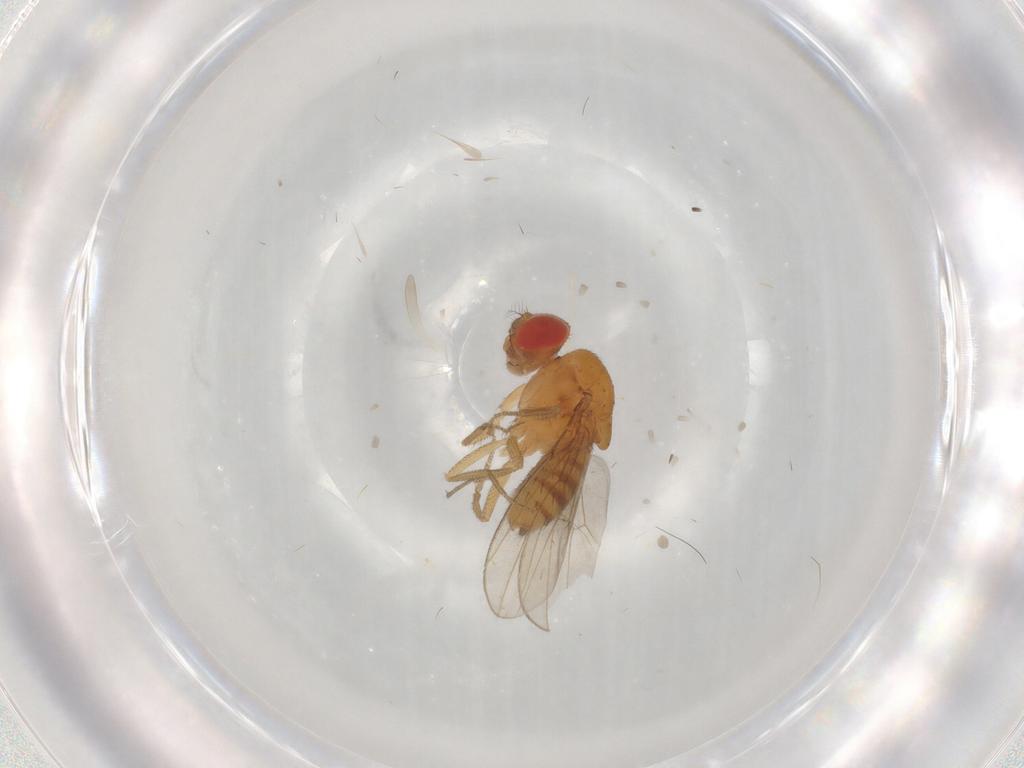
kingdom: Animalia
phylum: Arthropoda
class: Insecta
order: Diptera
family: Drosophilidae
